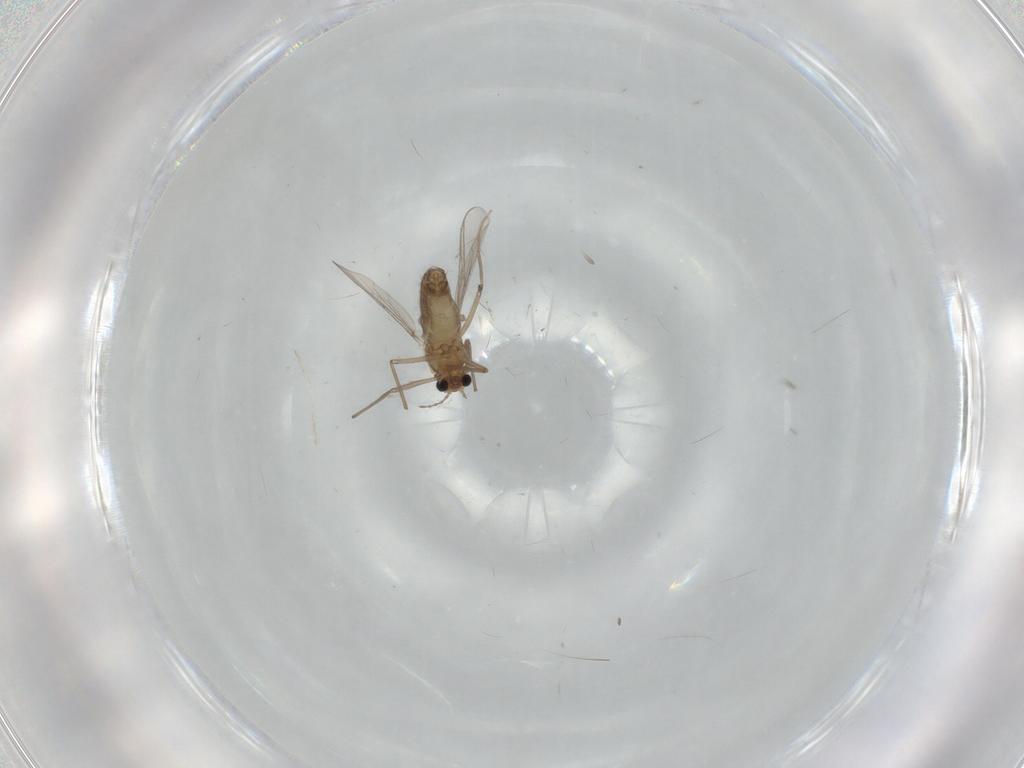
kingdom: Animalia
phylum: Arthropoda
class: Insecta
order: Diptera
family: Chironomidae
